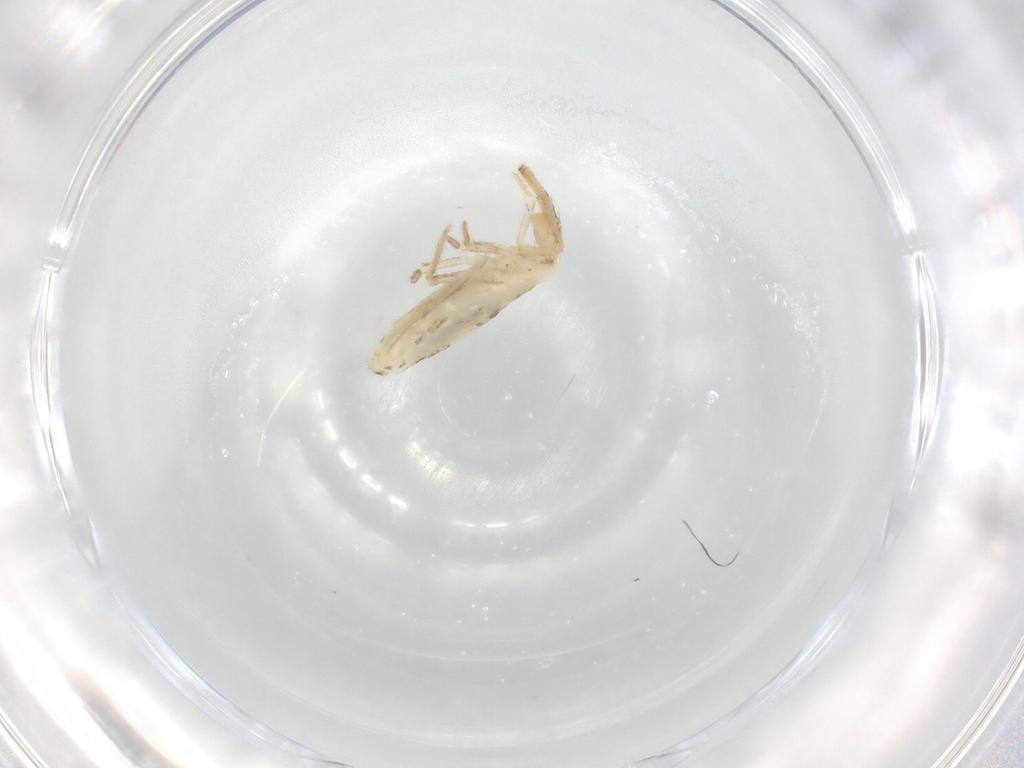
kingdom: Animalia
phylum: Arthropoda
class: Collembola
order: Entomobryomorpha
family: Entomobryidae
